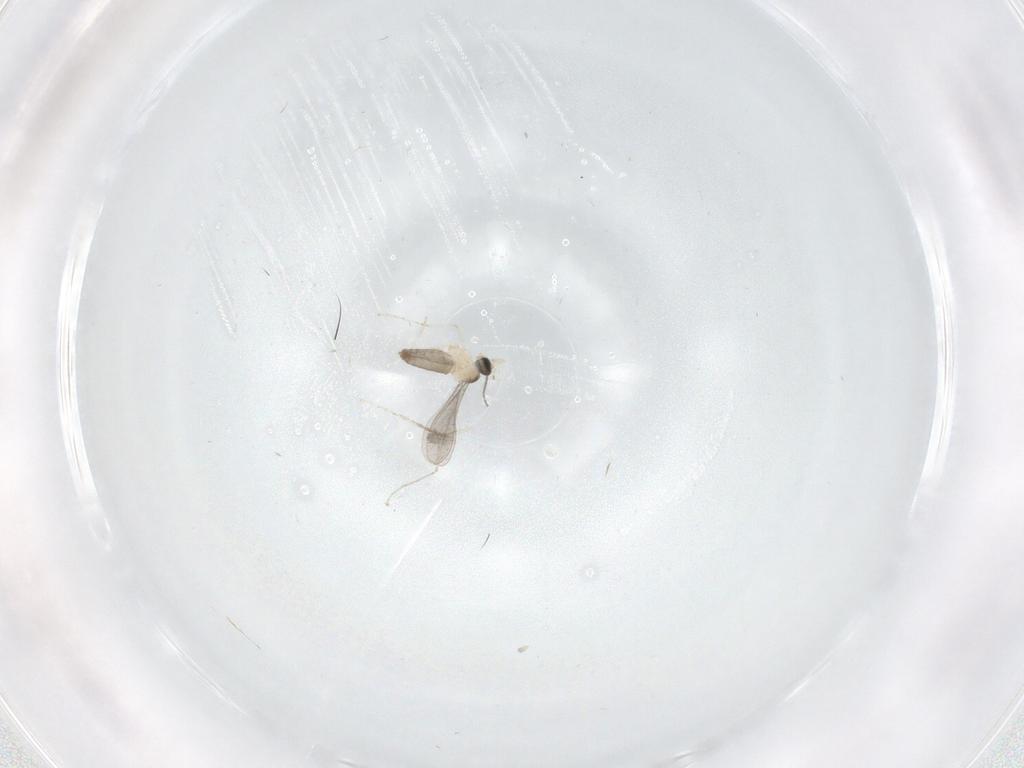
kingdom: Animalia
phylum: Arthropoda
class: Insecta
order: Diptera
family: Cecidomyiidae
